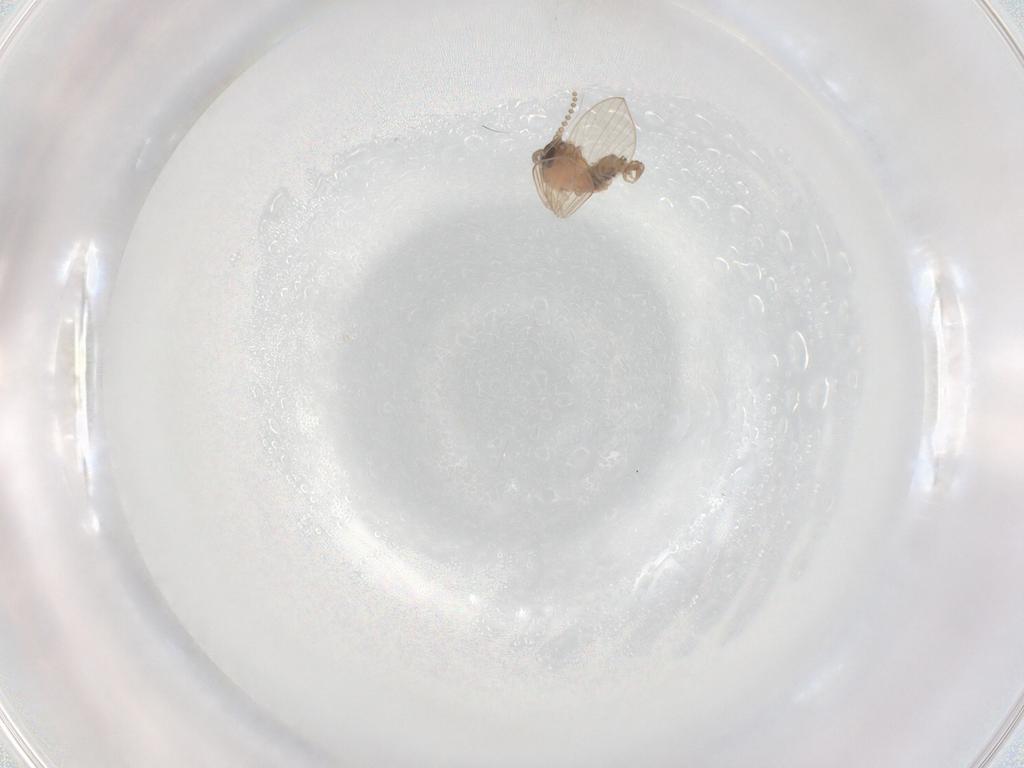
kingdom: Animalia
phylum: Arthropoda
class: Insecta
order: Diptera
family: Psychodidae
